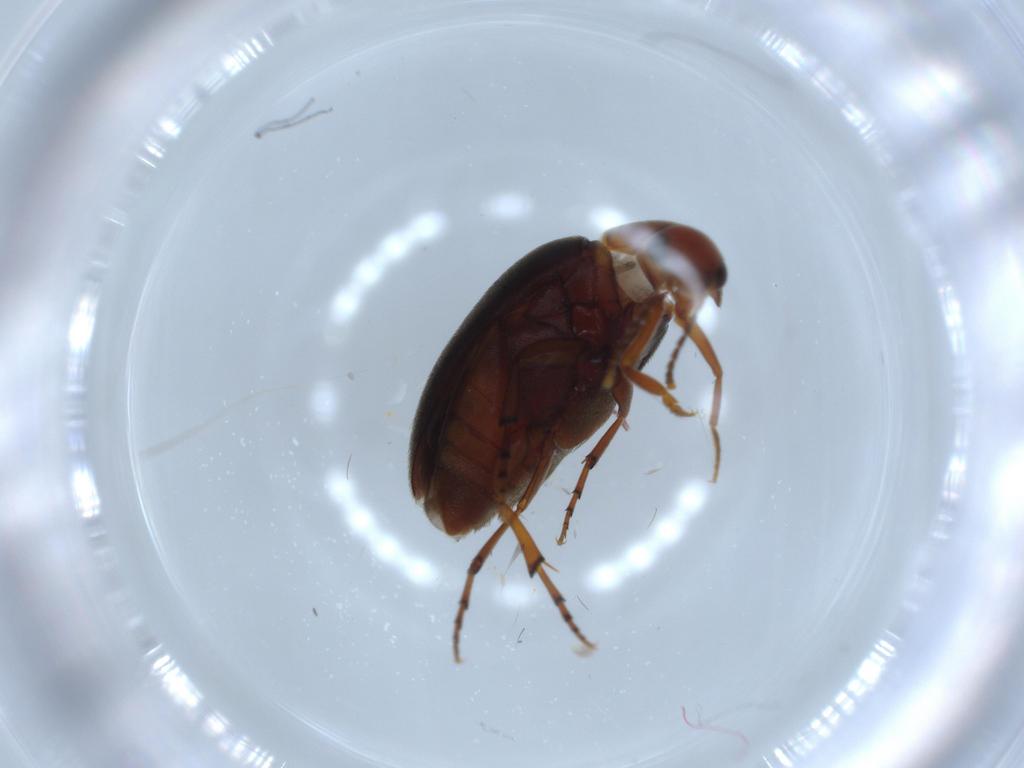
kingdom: Animalia
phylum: Arthropoda
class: Insecta
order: Coleoptera
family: Eucinetidae
